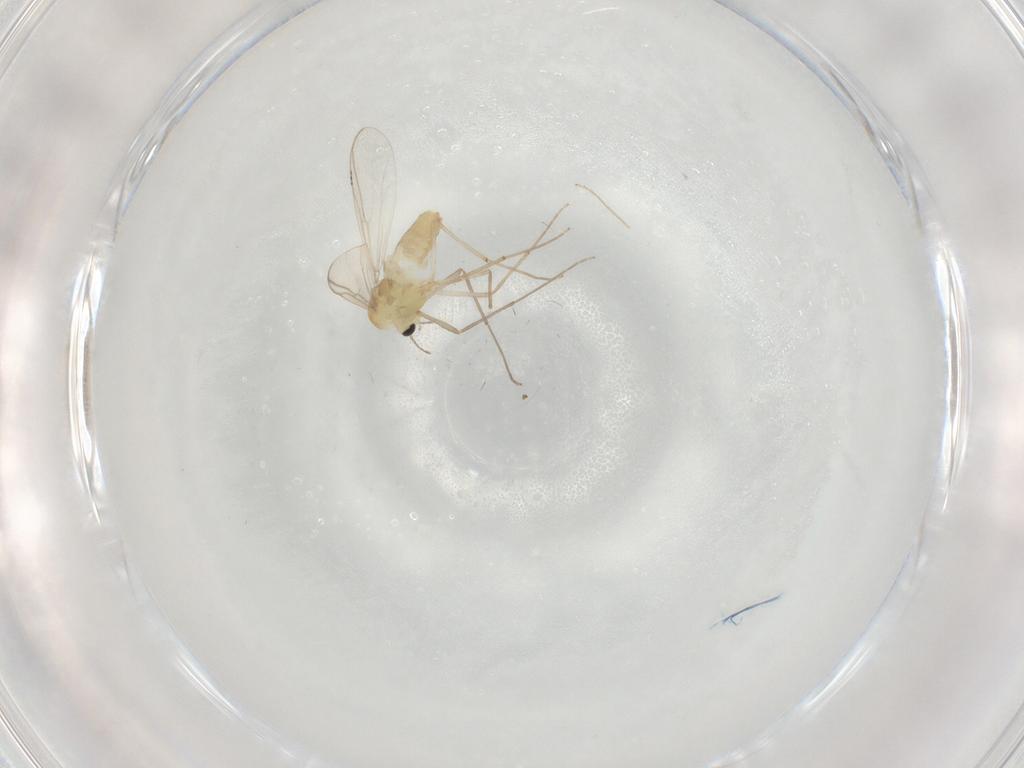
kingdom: Animalia
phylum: Arthropoda
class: Insecta
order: Diptera
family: Chironomidae
